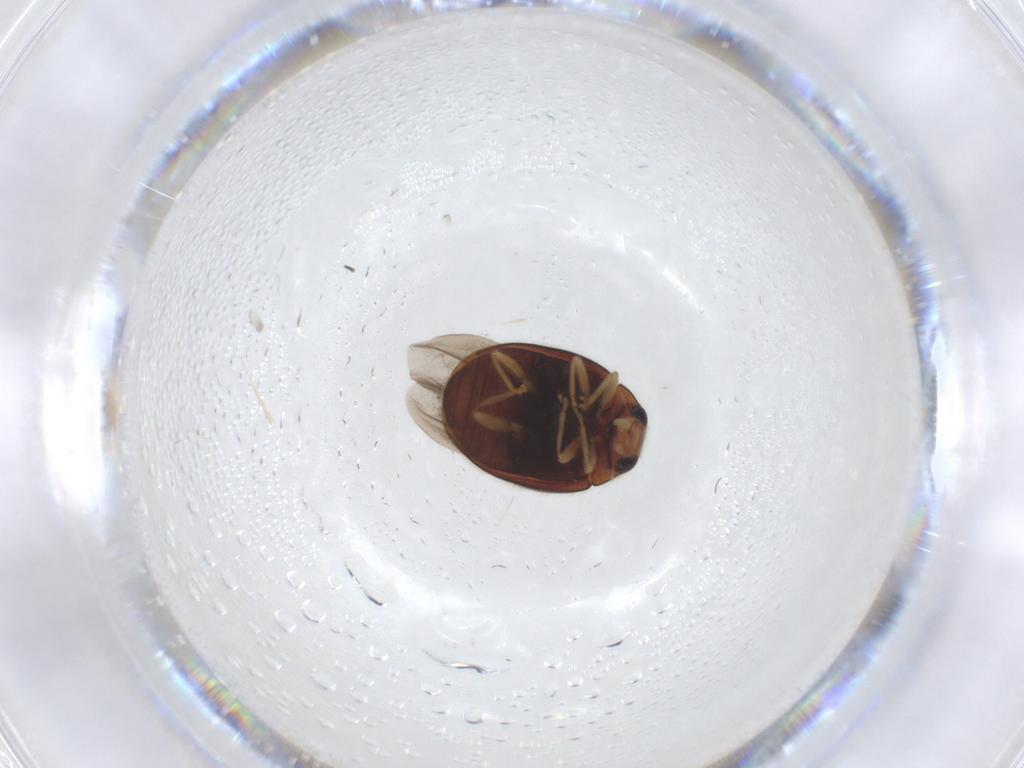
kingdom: Animalia
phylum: Arthropoda
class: Insecta
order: Coleoptera
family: Coccinellidae
